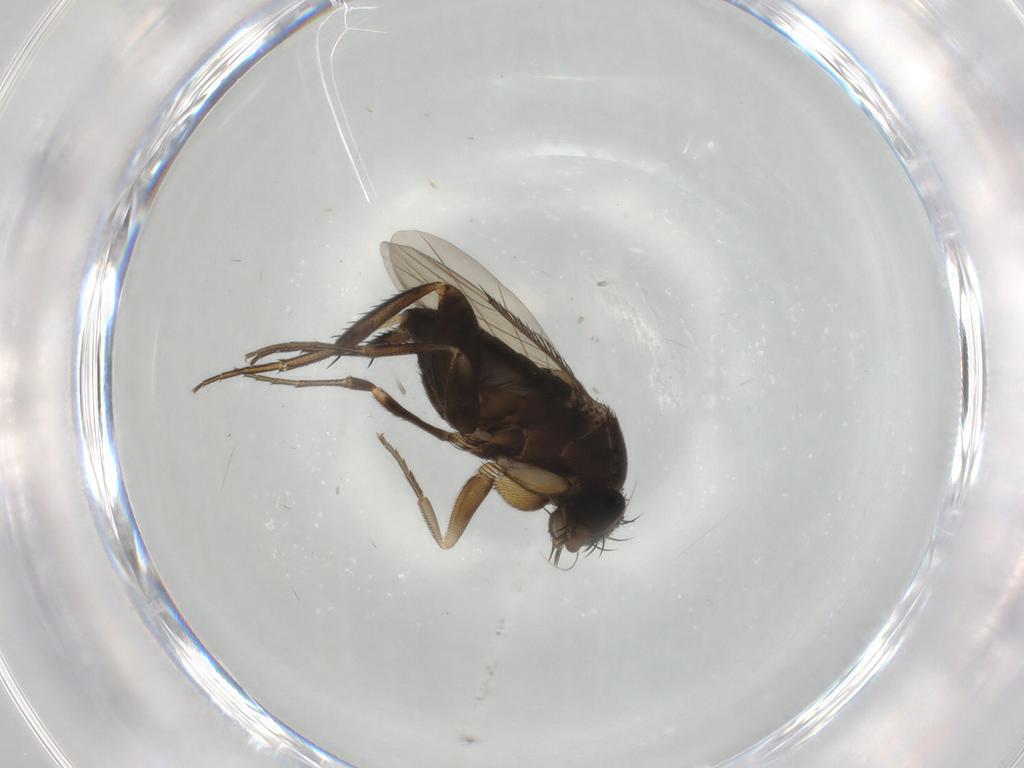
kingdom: Animalia
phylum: Arthropoda
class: Insecta
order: Diptera
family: Phoridae
